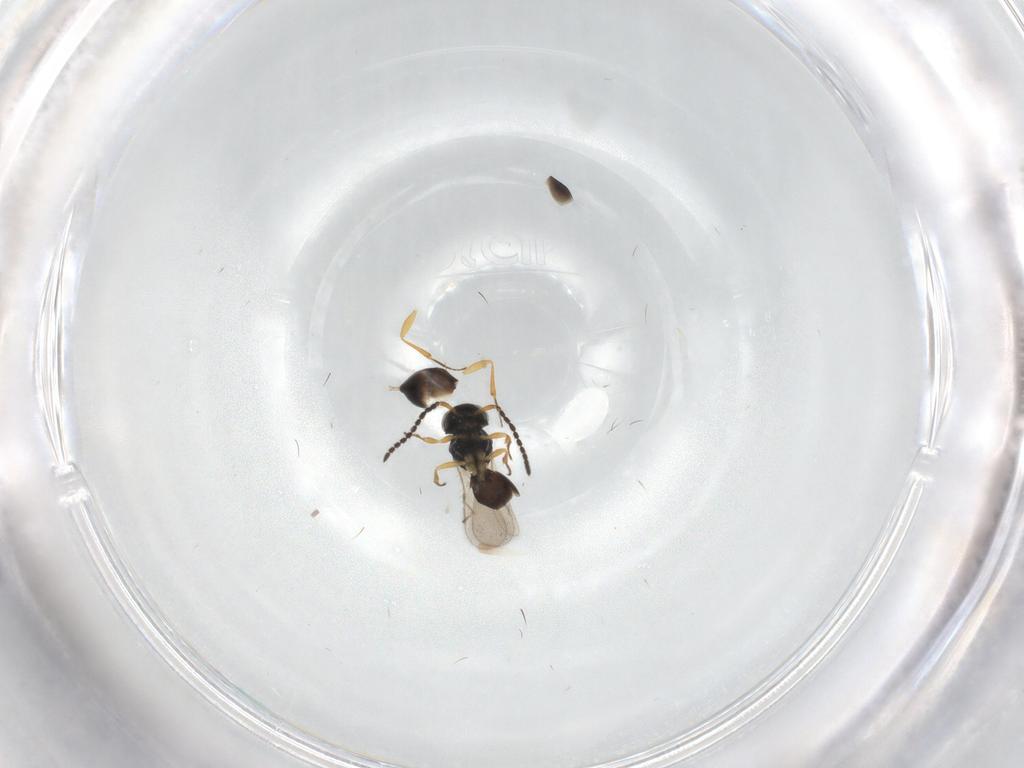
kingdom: Animalia
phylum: Arthropoda
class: Insecta
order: Hymenoptera
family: Scelionidae
